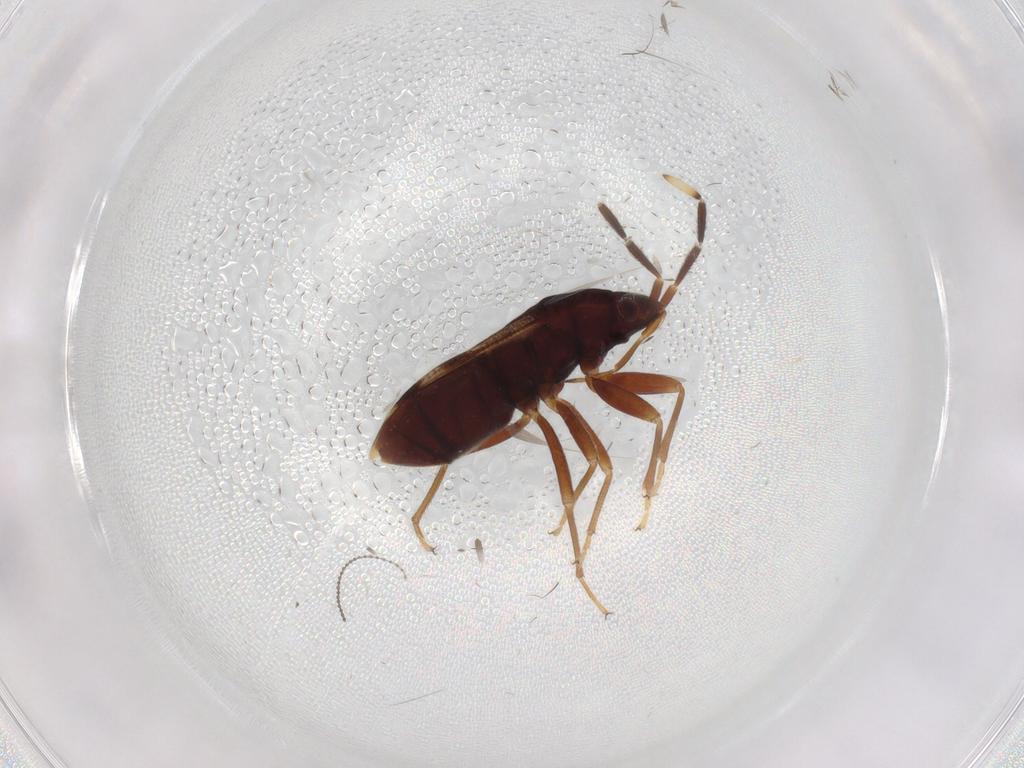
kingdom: Animalia
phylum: Arthropoda
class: Insecta
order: Hemiptera
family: Rhyparochromidae
